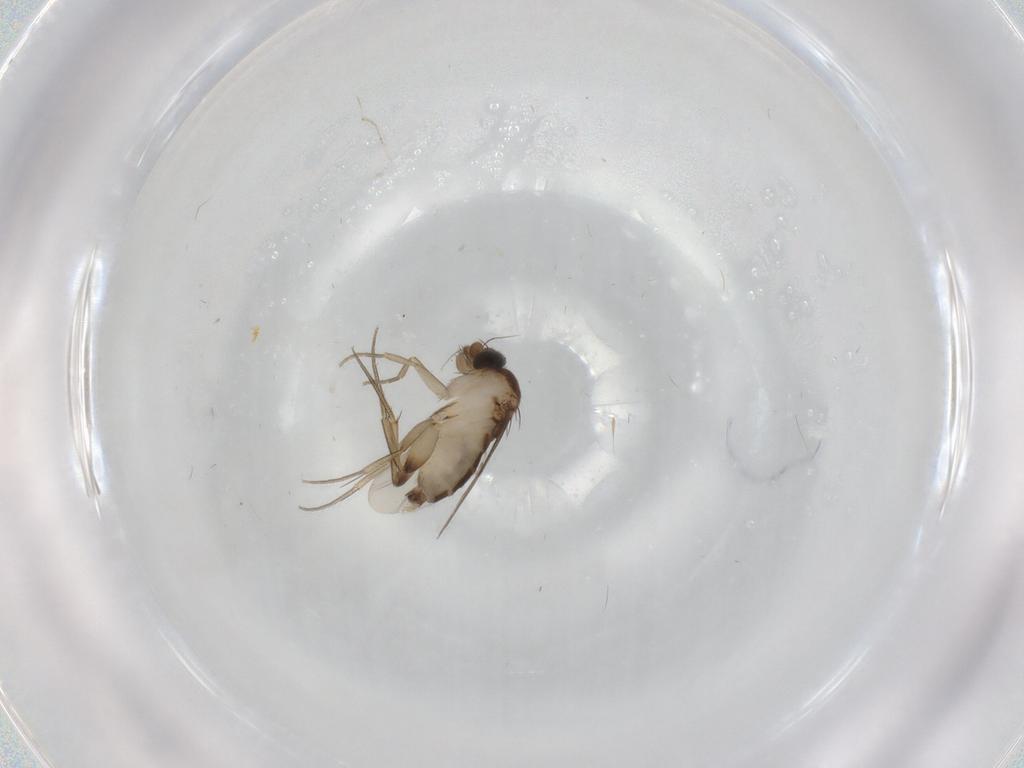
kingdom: Animalia
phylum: Arthropoda
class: Insecta
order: Diptera
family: Phoridae
